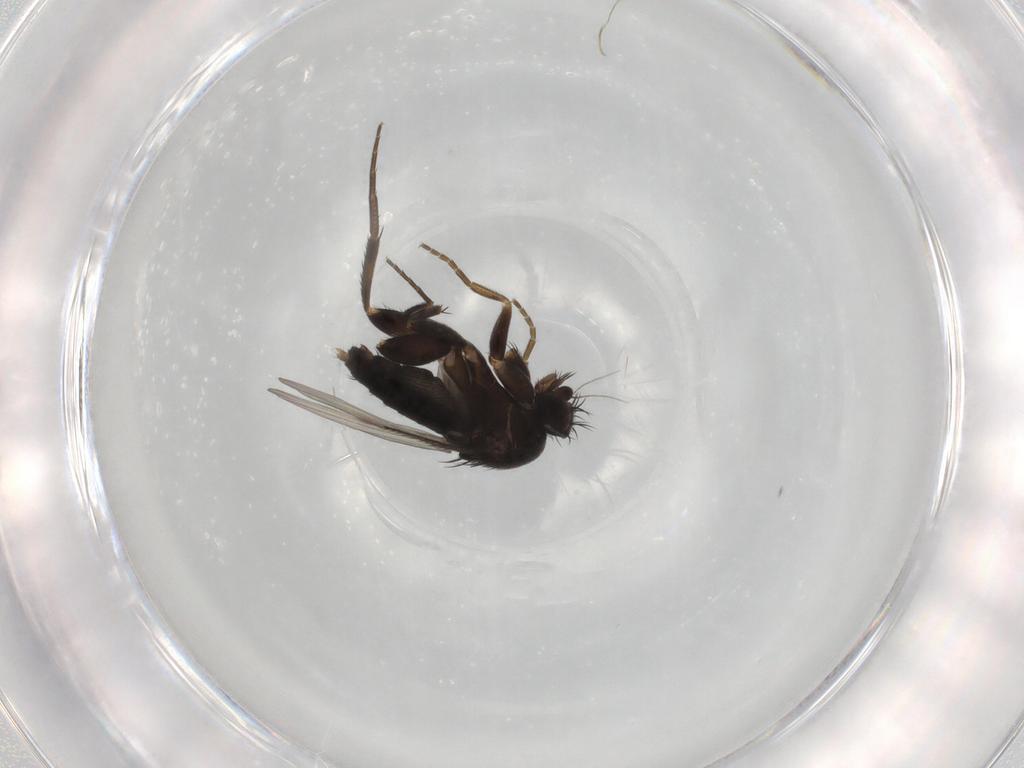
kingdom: Animalia
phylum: Arthropoda
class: Insecta
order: Diptera
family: Phoridae
